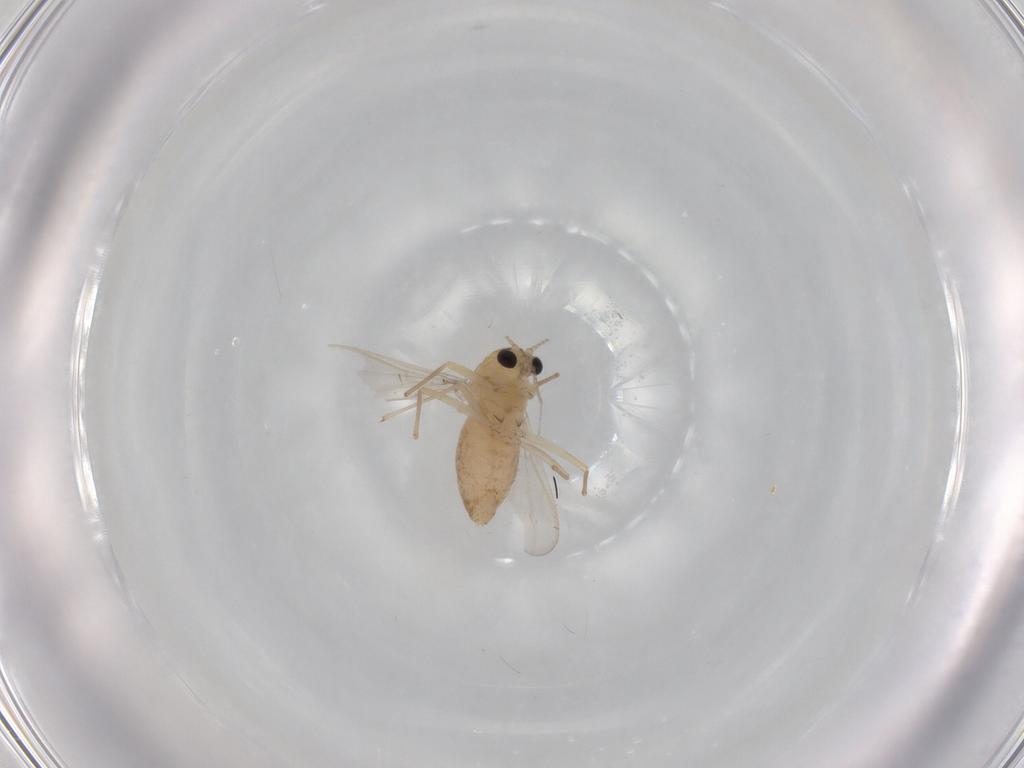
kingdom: Animalia
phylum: Arthropoda
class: Insecta
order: Diptera
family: Chironomidae
